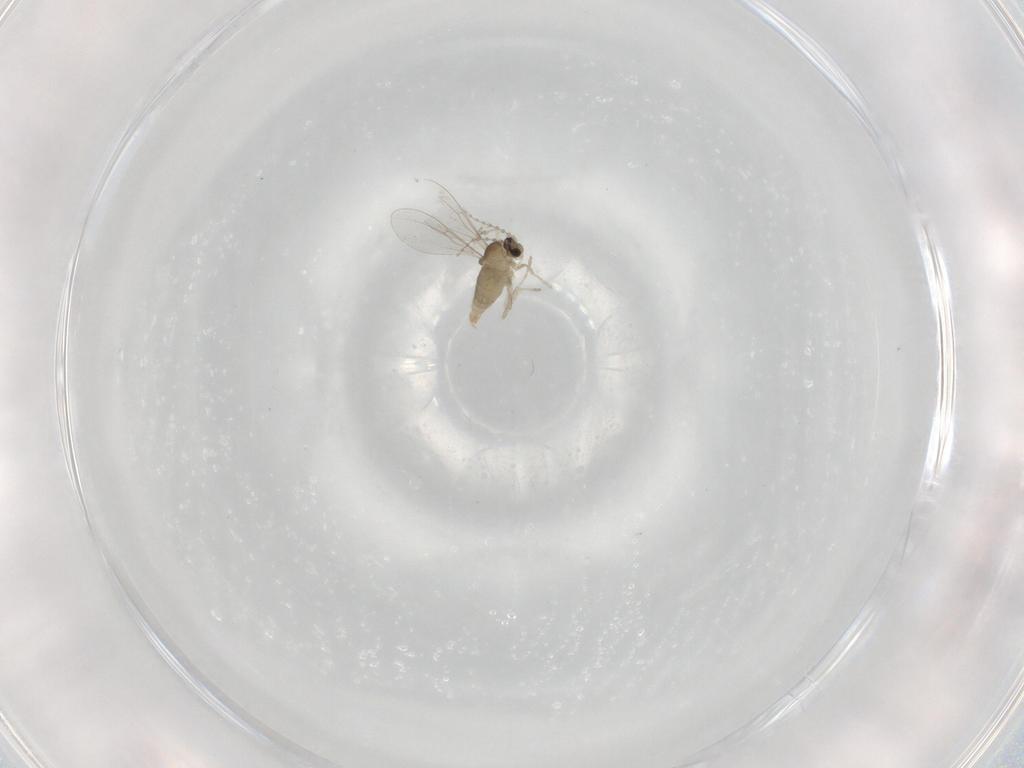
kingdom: Animalia
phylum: Arthropoda
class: Insecta
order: Diptera
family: Cecidomyiidae
